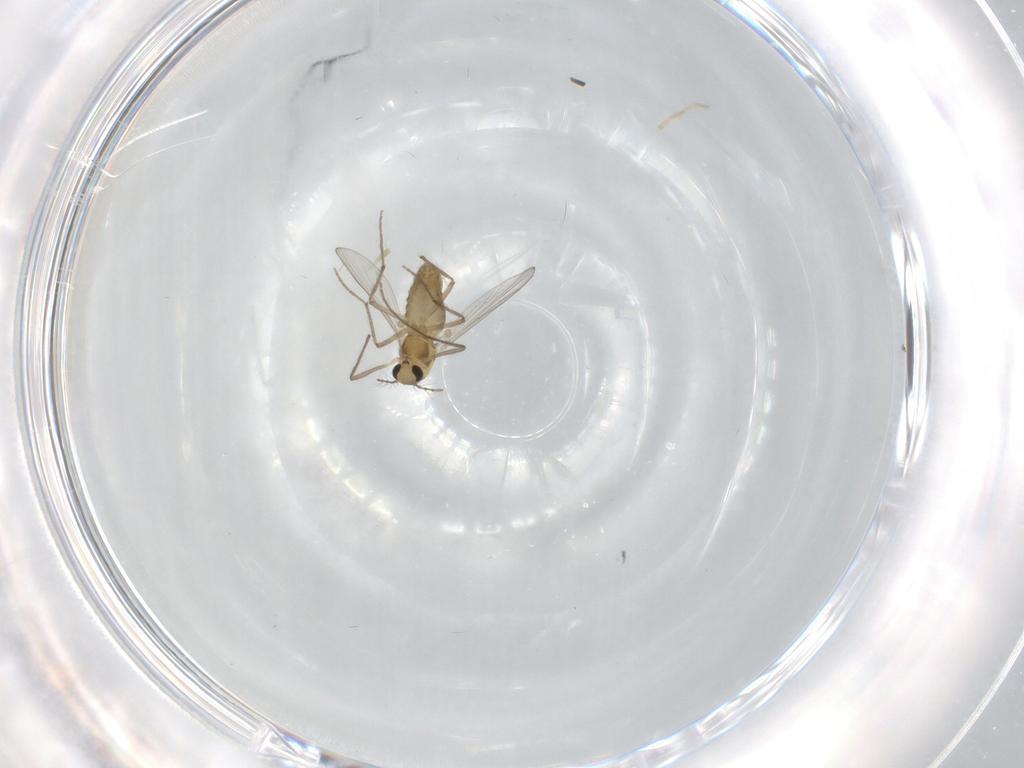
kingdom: Animalia
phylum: Arthropoda
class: Insecta
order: Diptera
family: Chironomidae
